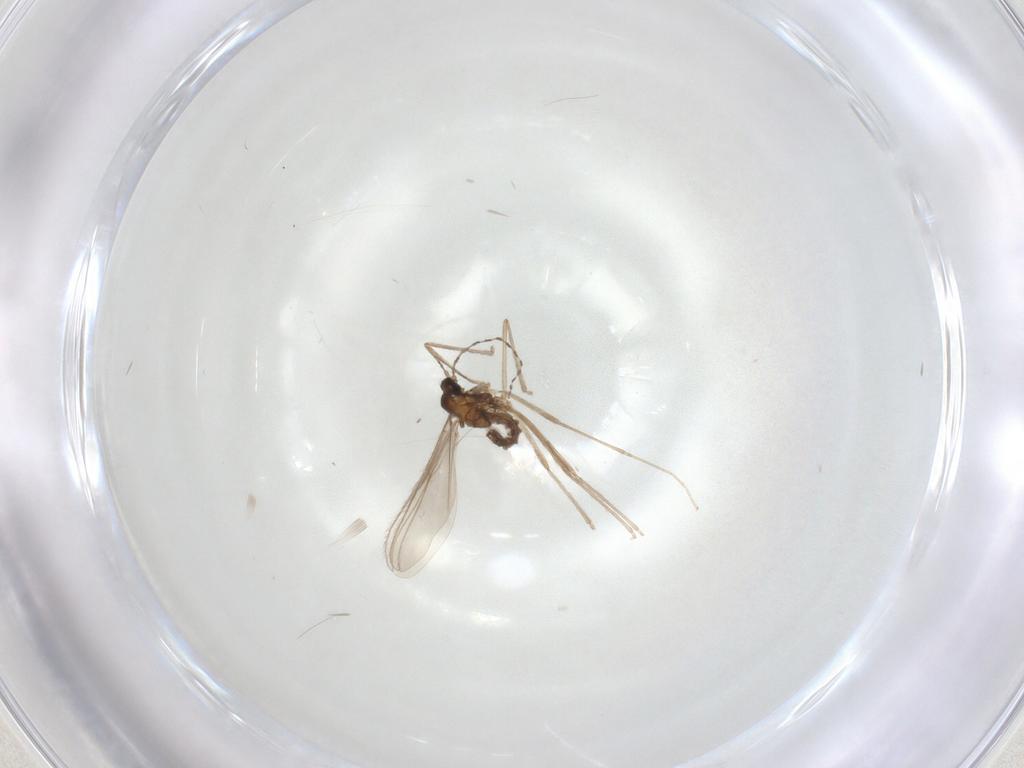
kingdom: Animalia
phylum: Arthropoda
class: Insecta
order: Diptera
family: Cecidomyiidae
